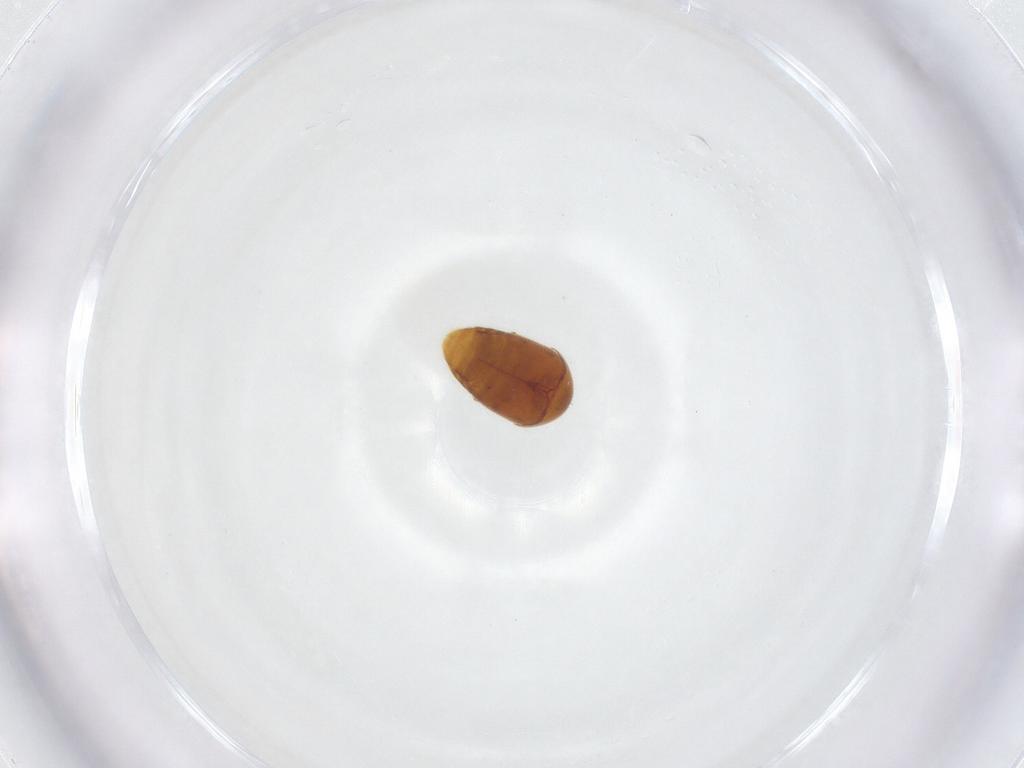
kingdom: Animalia
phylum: Arthropoda
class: Insecta
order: Coleoptera
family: Corylophidae
